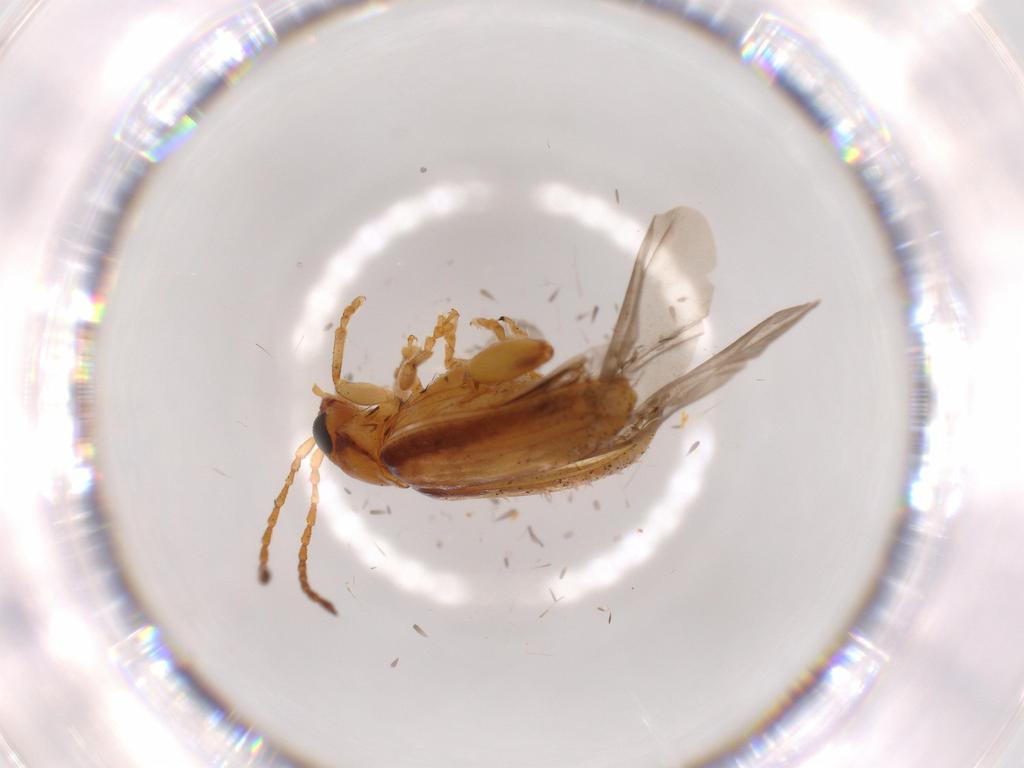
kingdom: Animalia
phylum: Arthropoda
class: Insecta
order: Coleoptera
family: Chrysomelidae
